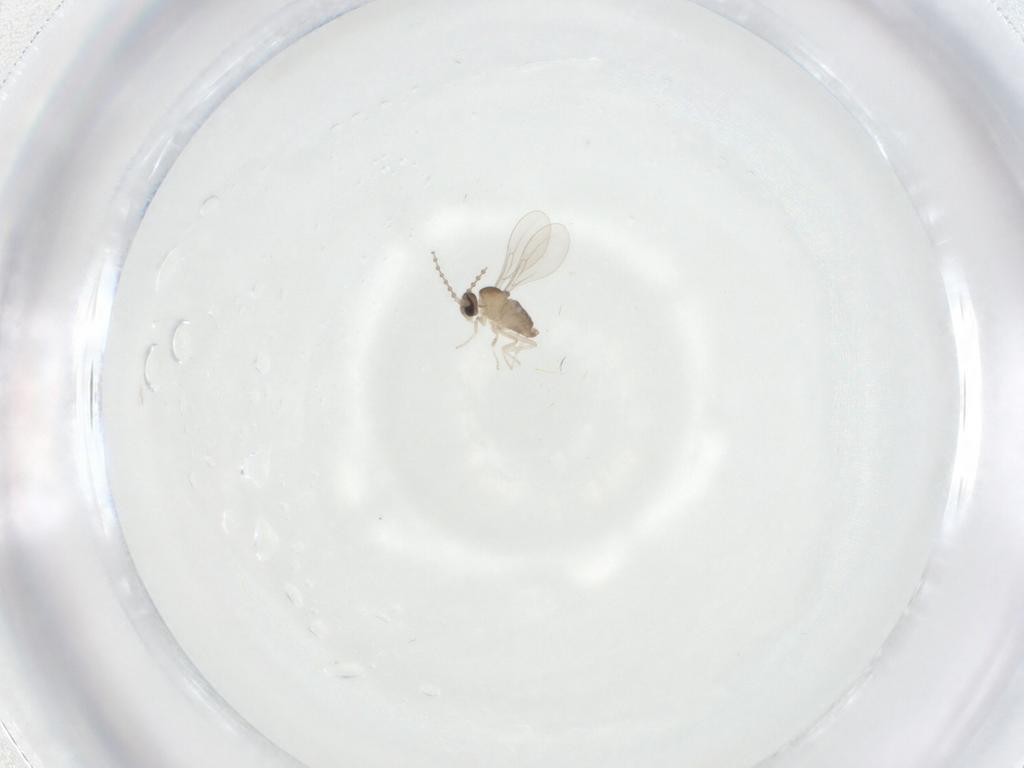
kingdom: Animalia
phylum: Arthropoda
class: Insecta
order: Diptera
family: Cecidomyiidae
